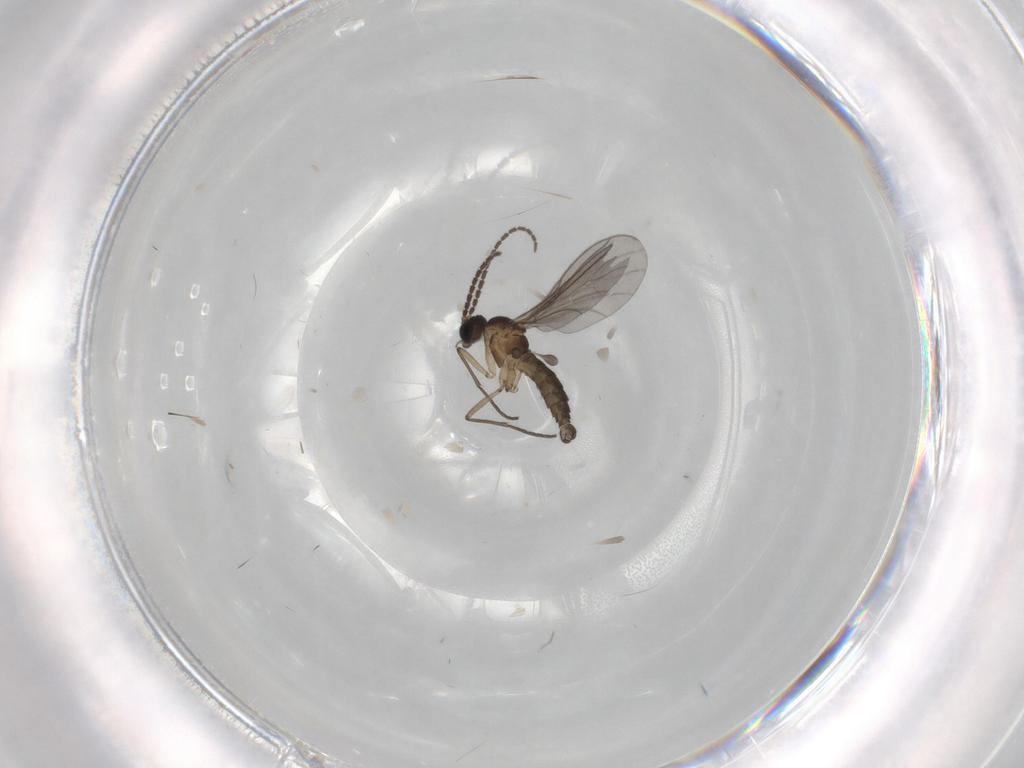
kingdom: Animalia
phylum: Arthropoda
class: Insecta
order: Diptera
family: Sciaridae
